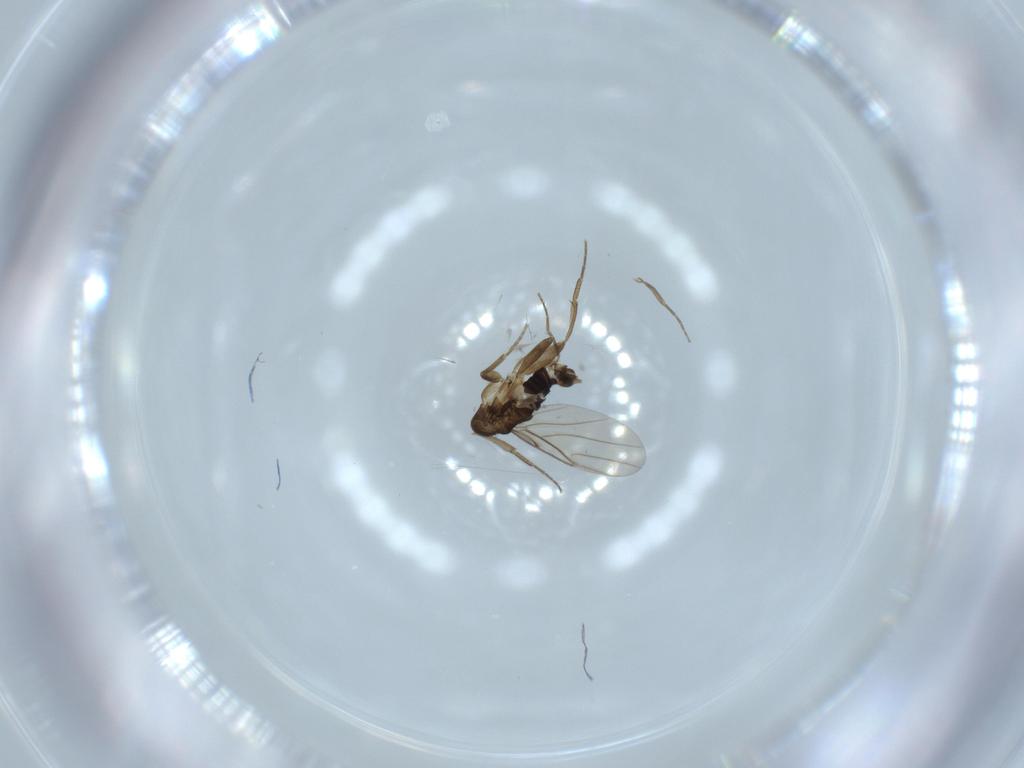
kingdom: Animalia
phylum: Arthropoda
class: Insecta
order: Diptera
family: Phoridae
